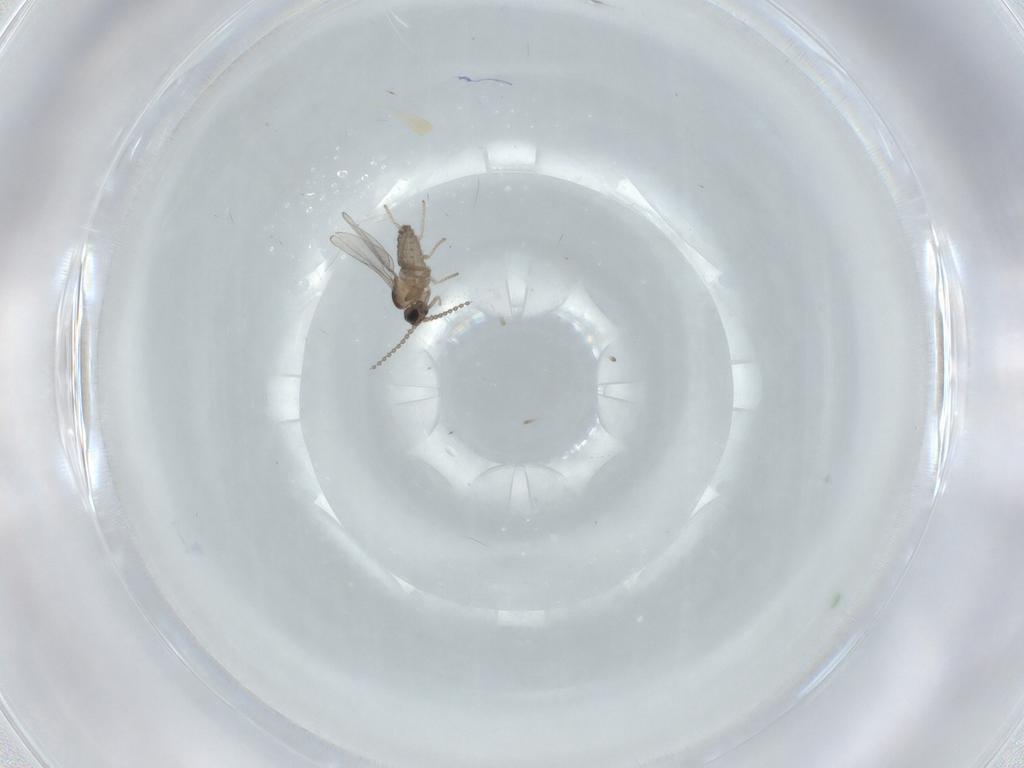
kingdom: Animalia
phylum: Arthropoda
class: Insecta
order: Diptera
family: Cecidomyiidae
